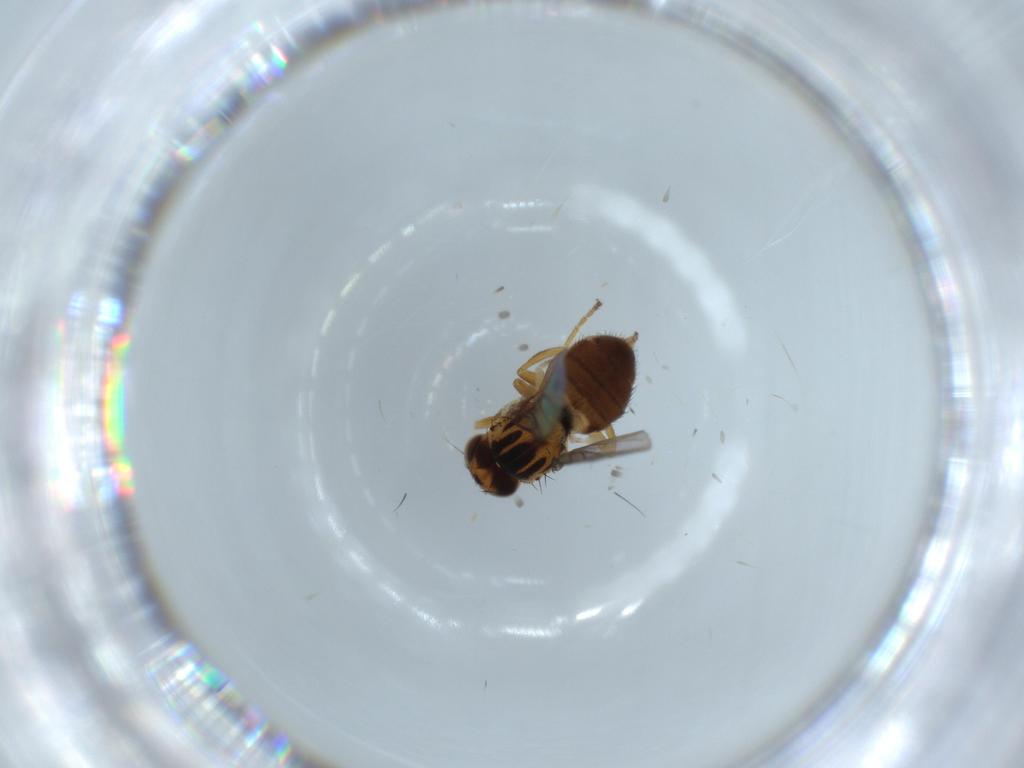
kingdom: Animalia
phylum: Arthropoda
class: Insecta
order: Diptera
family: Chloropidae
